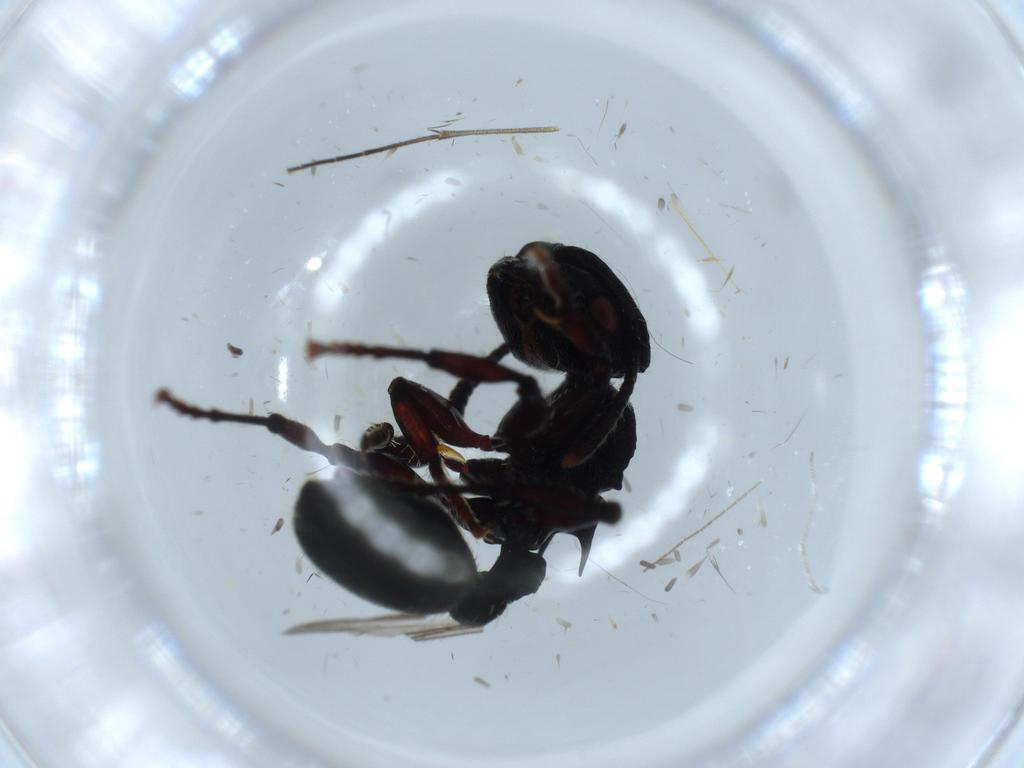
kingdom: Animalia
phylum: Arthropoda
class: Insecta
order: Hymenoptera
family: Formicidae
